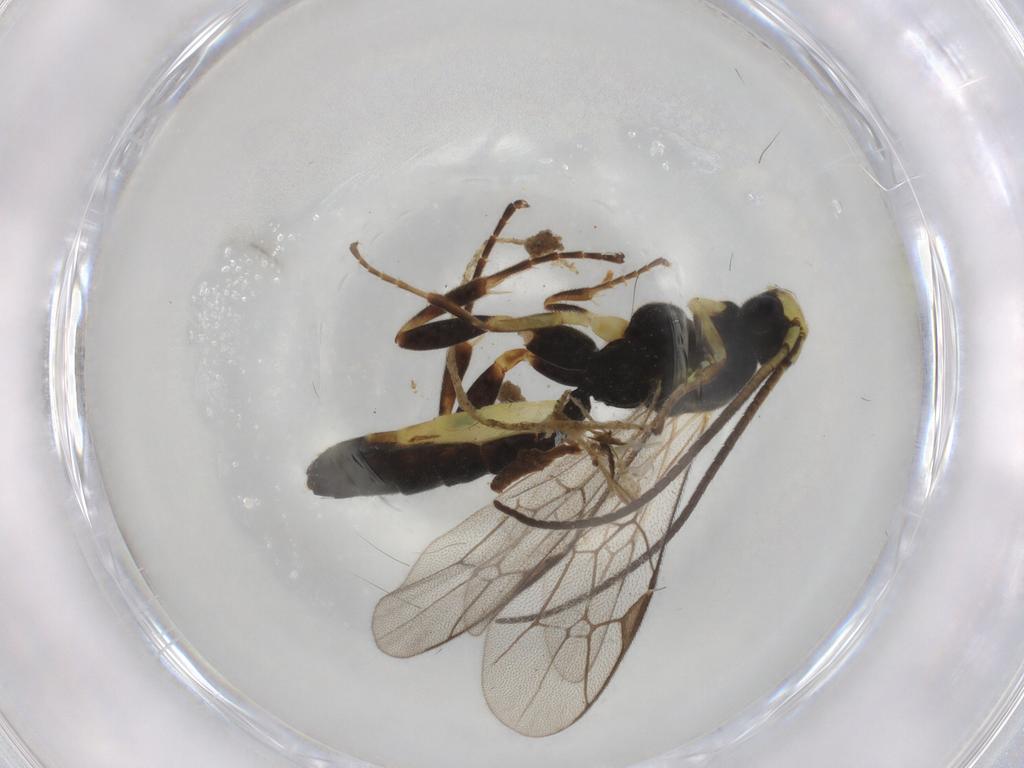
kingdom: Animalia
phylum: Arthropoda
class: Insecta
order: Hymenoptera
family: Ichneumonidae
